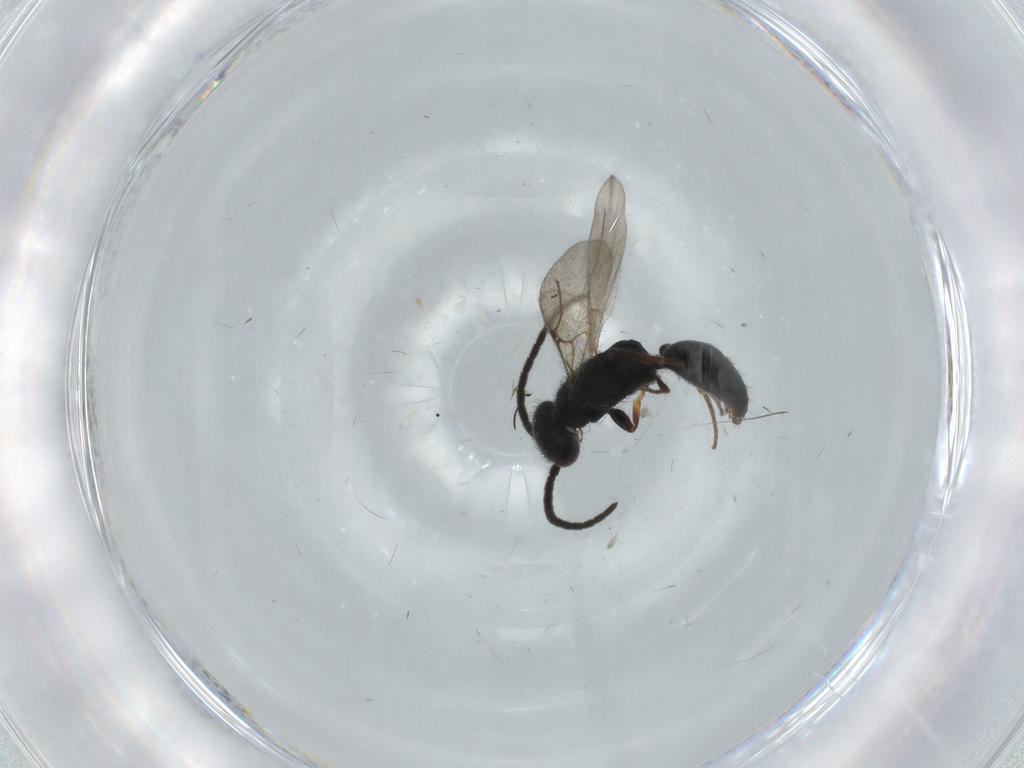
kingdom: Animalia
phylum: Arthropoda
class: Insecta
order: Hymenoptera
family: Bethylidae
